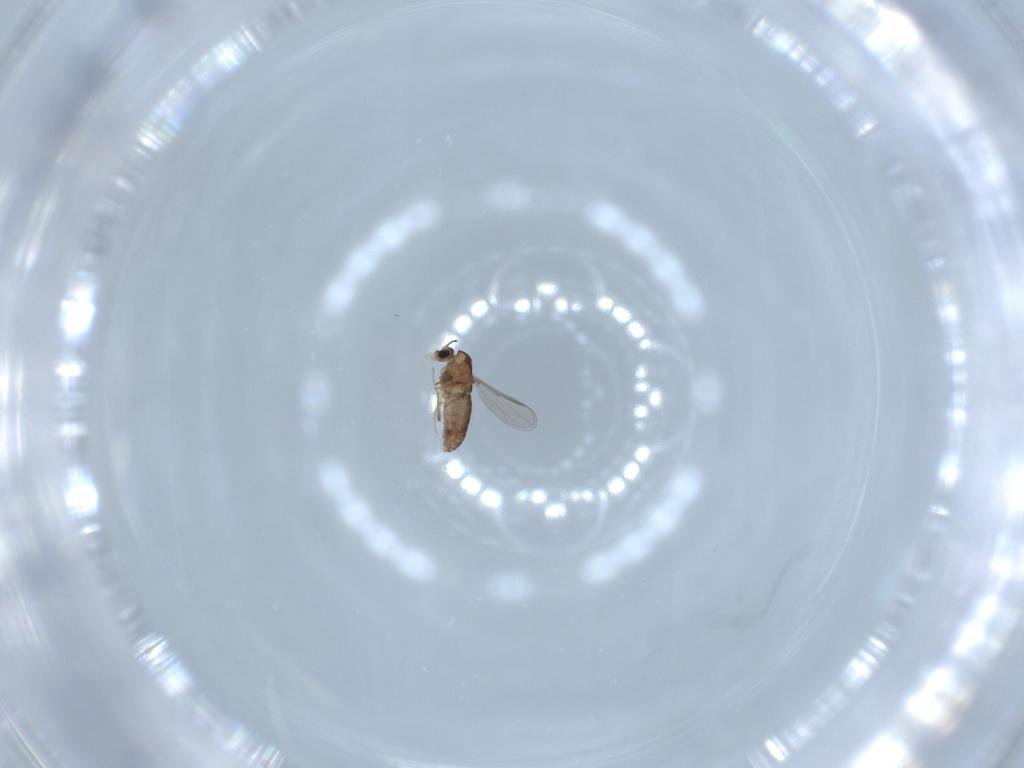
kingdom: Animalia
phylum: Arthropoda
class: Insecta
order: Diptera
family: Chironomidae
